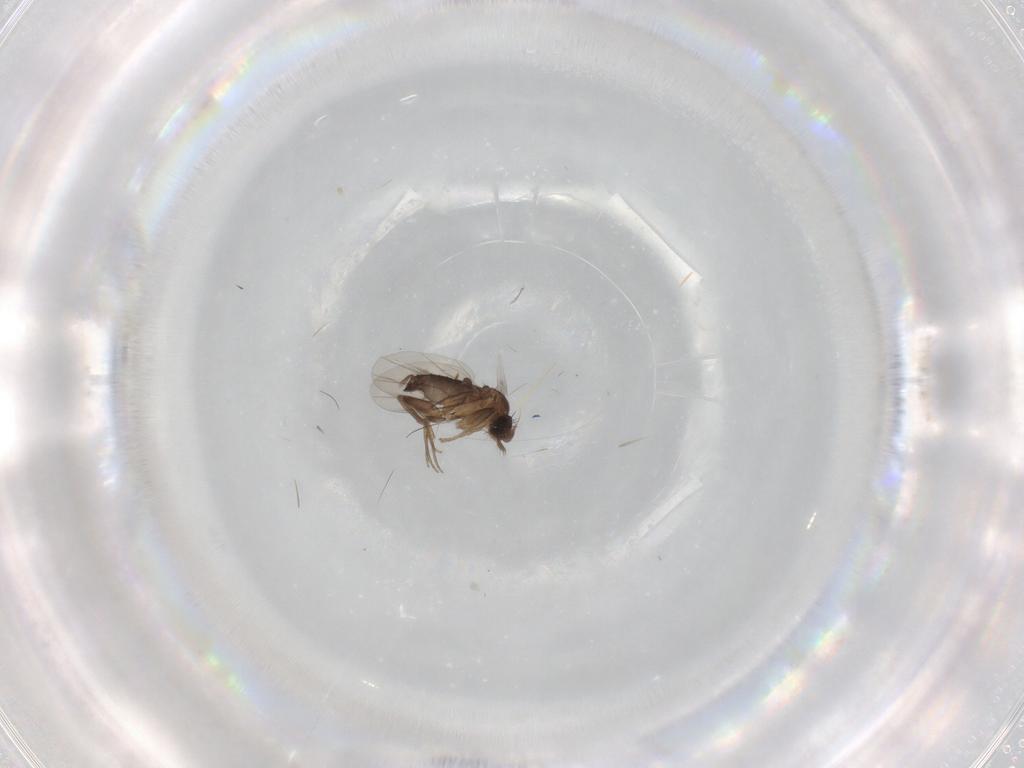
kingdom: Animalia
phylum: Arthropoda
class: Insecta
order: Diptera
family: Phoridae
